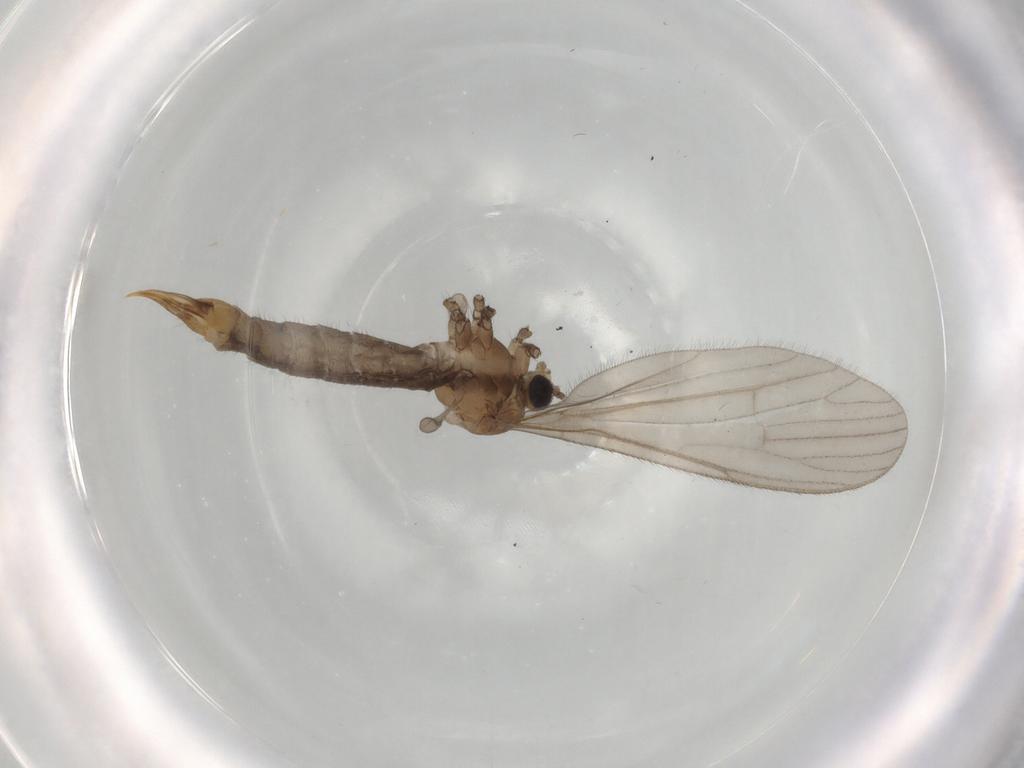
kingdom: Animalia
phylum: Arthropoda
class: Insecta
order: Diptera
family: Limoniidae
